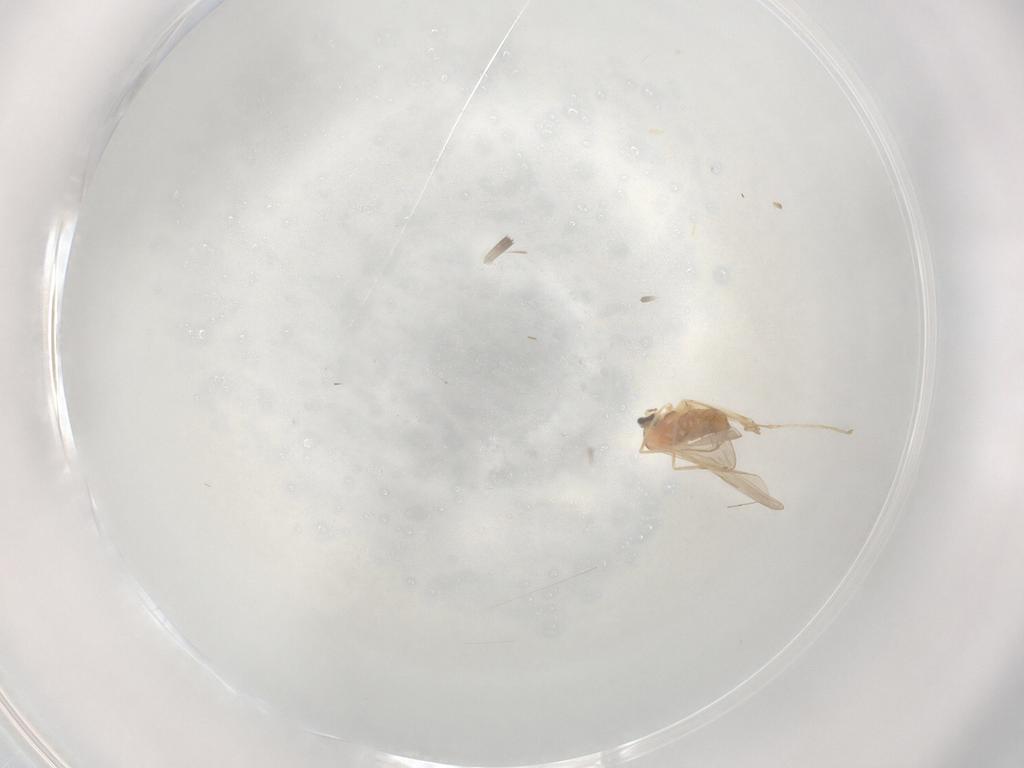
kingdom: Animalia
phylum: Arthropoda
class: Insecta
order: Diptera
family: Cecidomyiidae
